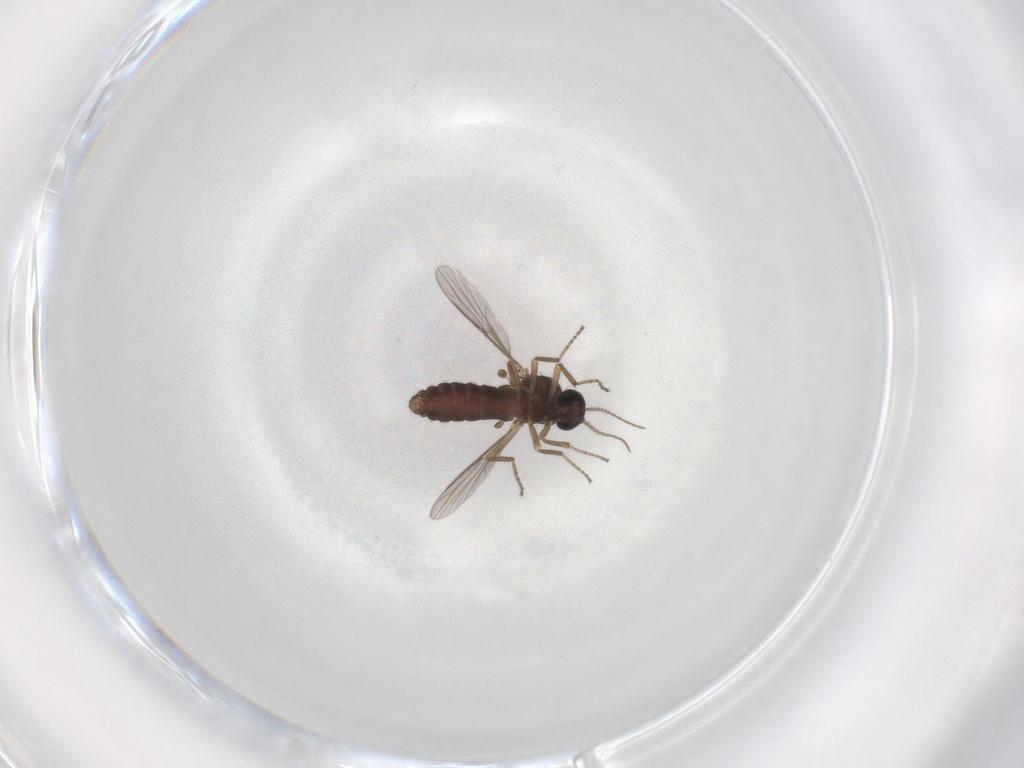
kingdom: Animalia
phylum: Arthropoda
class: Insecta
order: Diptera
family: Ceratopogonidae
